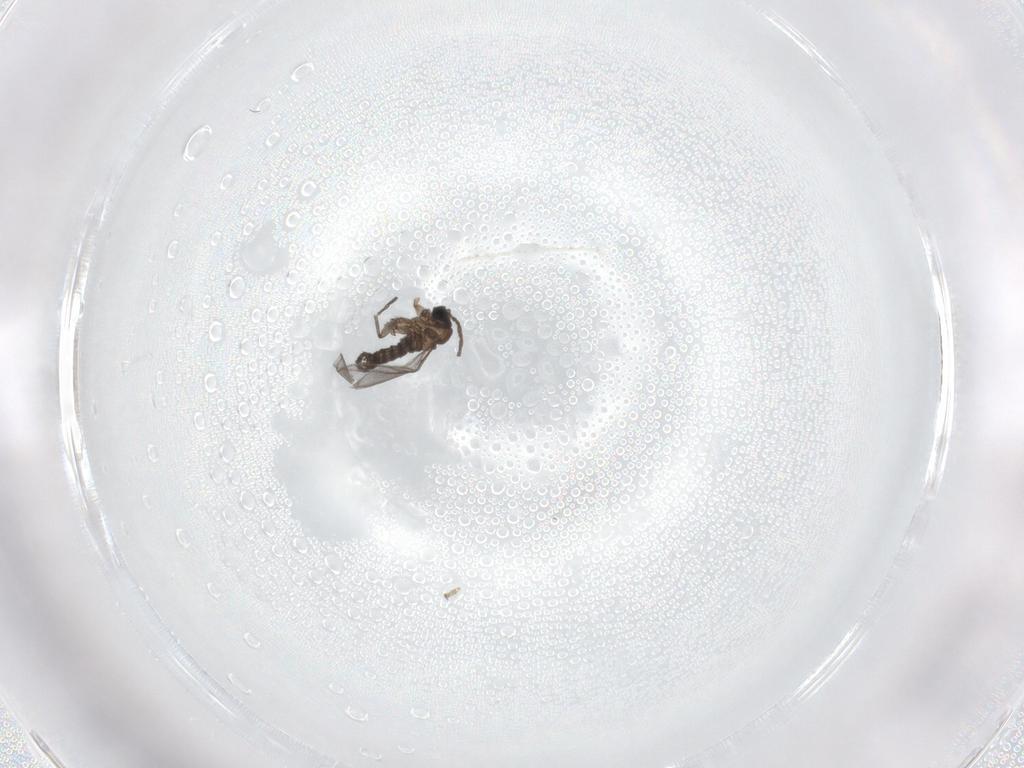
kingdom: Animalia
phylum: Arthropoda
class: Insecta
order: Diptera
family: Sciaridae
